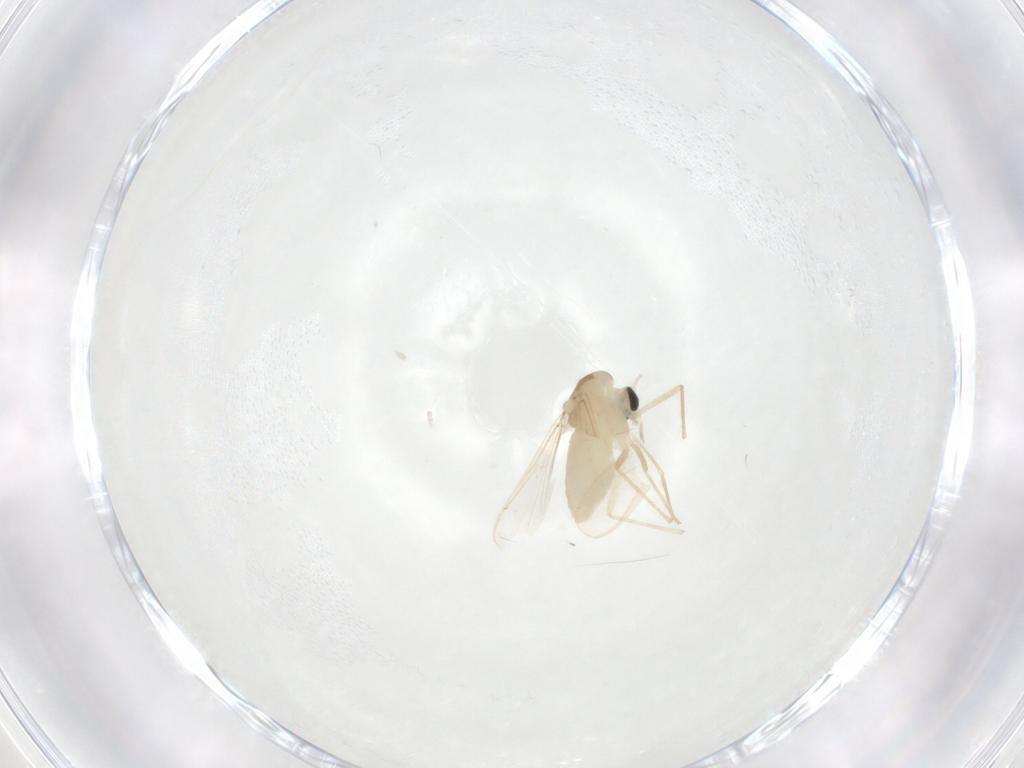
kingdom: Animalia
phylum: Arthropoda
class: Insecta
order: Diptera
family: Chironomidae
